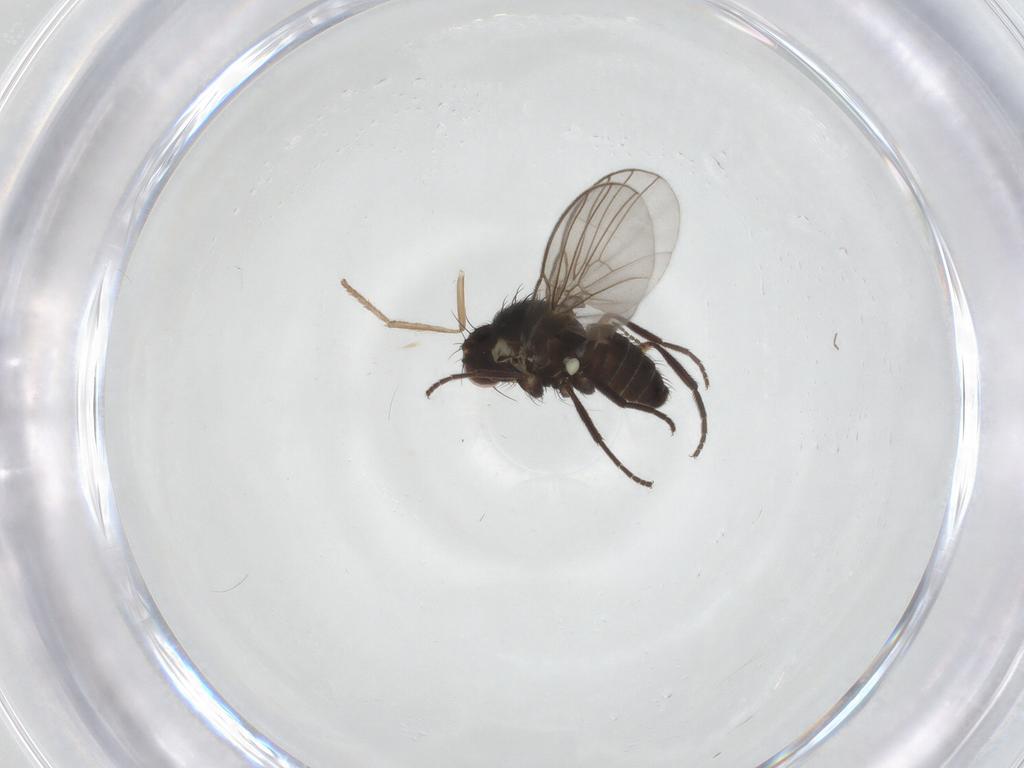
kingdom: Animalia
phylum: Arthropoda
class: Insecta
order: Diptera
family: Agromyzidae
